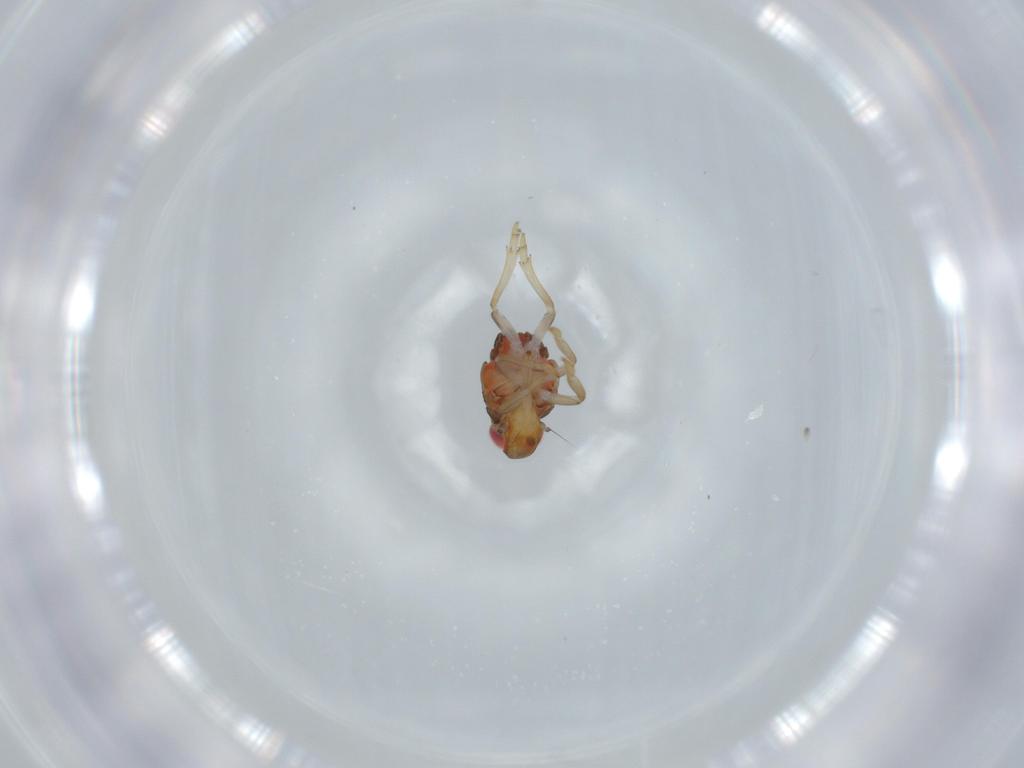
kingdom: Animalia
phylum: Arthropoda
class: Insecta
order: Hemiptera
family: Issidae
